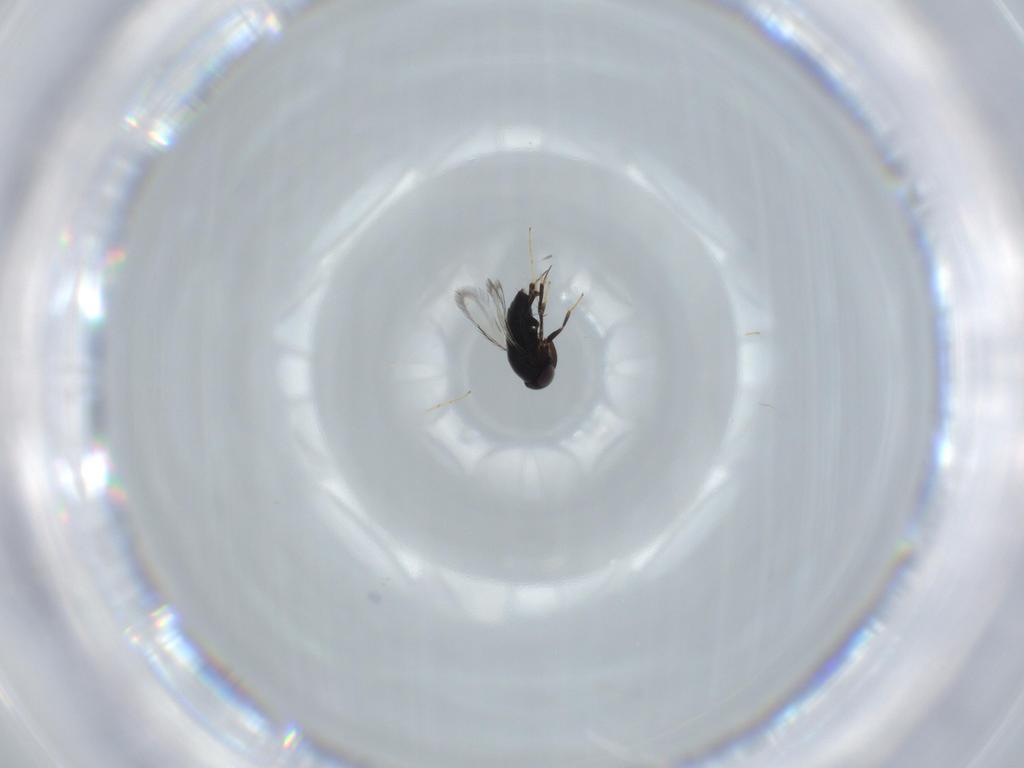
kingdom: Animalia
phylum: Arthropoda
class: Insecta
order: Hymenoptera
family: Signiphoridae
